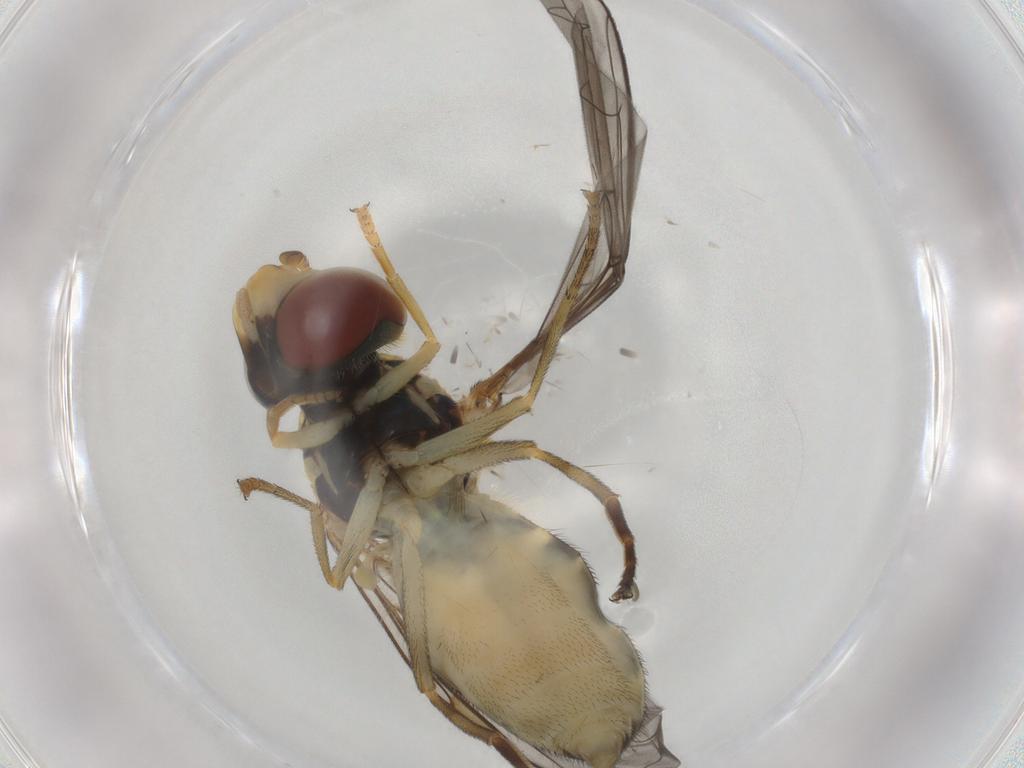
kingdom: Animalia
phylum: Arthropoda
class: Insecta
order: Diptera
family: Syrphidae
